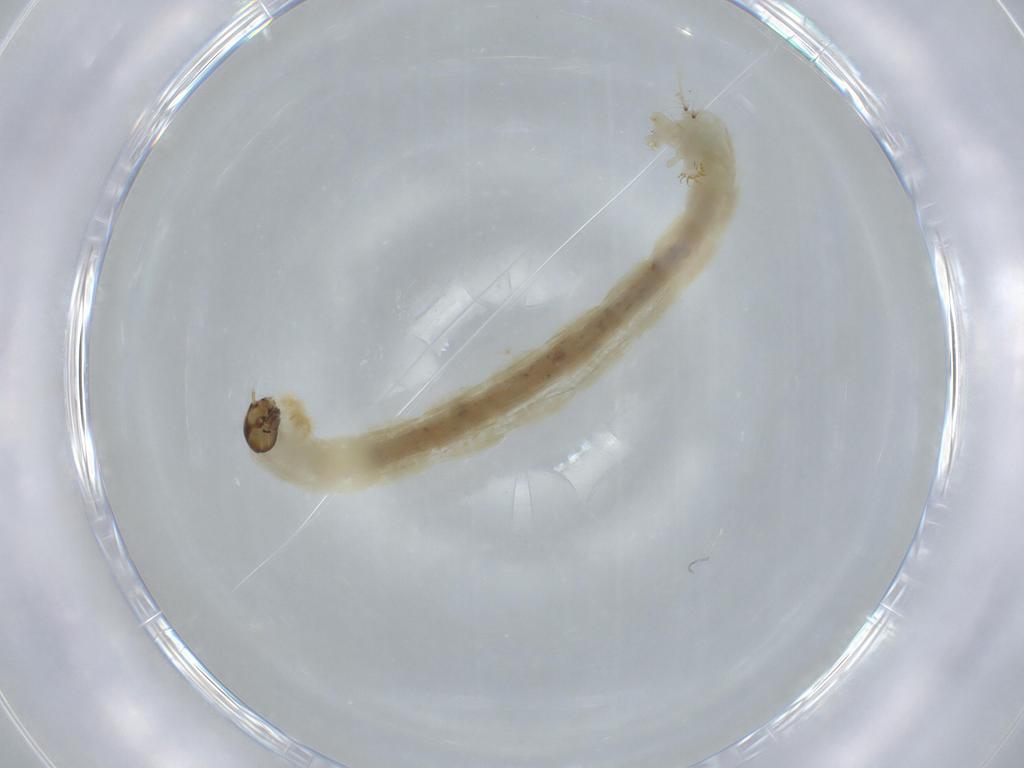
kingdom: Animalia
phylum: Arthropoda
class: Insecta
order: Diptera
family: Chironomidae
